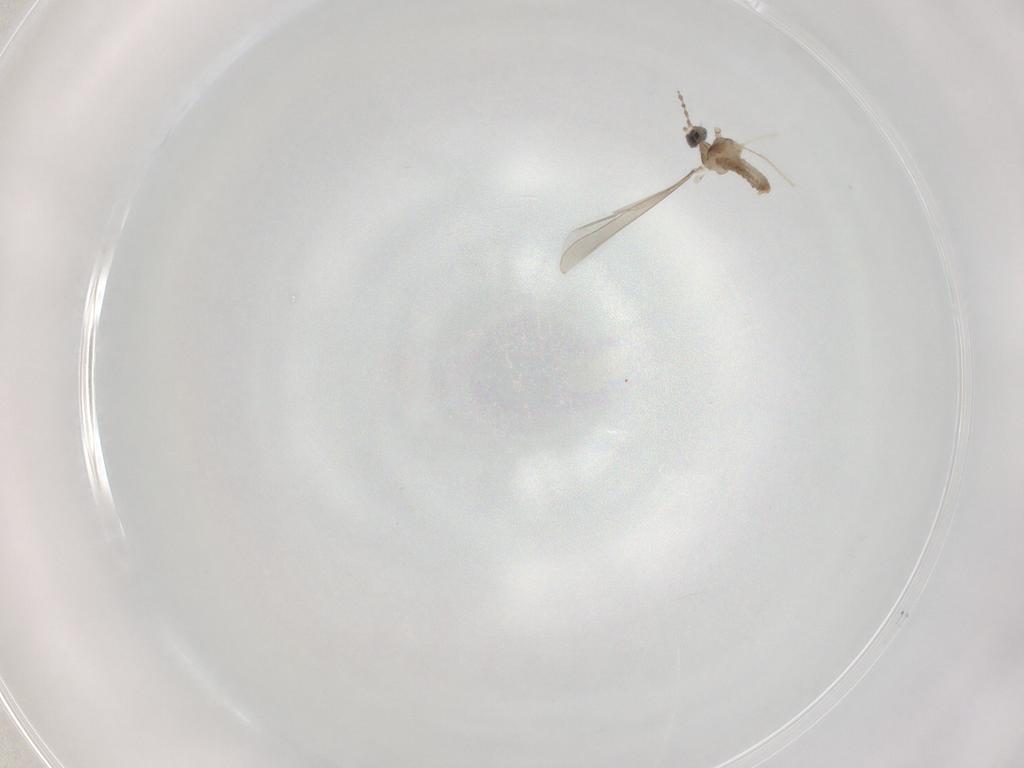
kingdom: Animalia
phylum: Arthropoda
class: Insecta
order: Diptera
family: Cecidomyiidae
